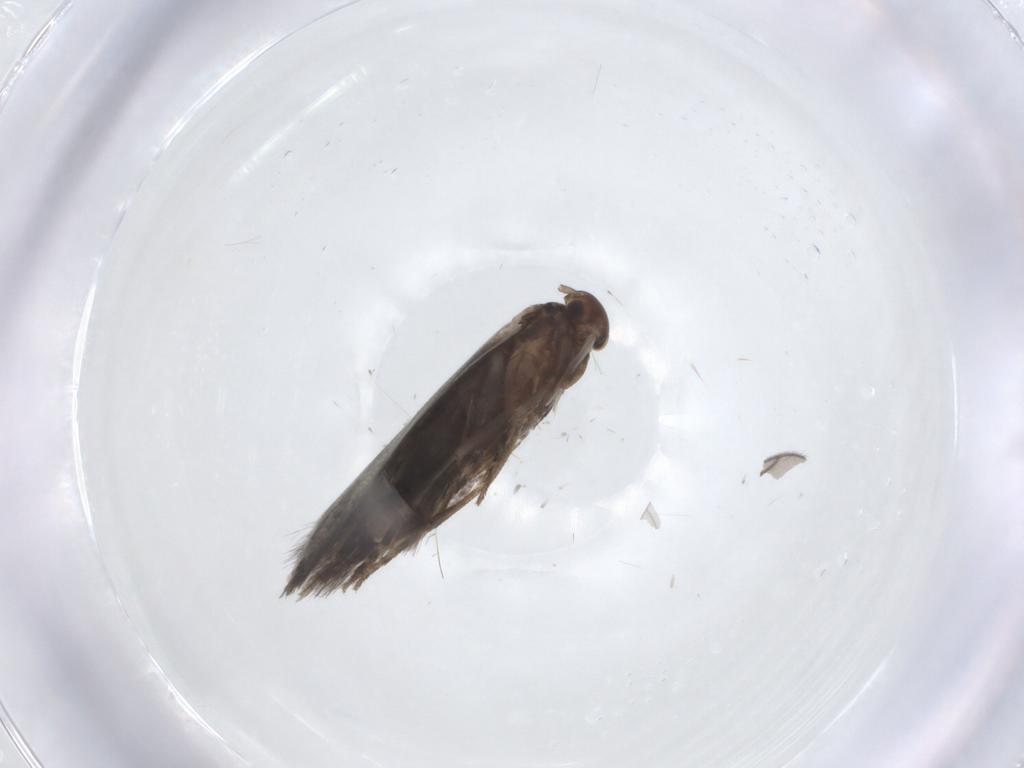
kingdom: Animalia
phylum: Arthropoda
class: Insecta
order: Lepidoptera
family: Elachistidae
